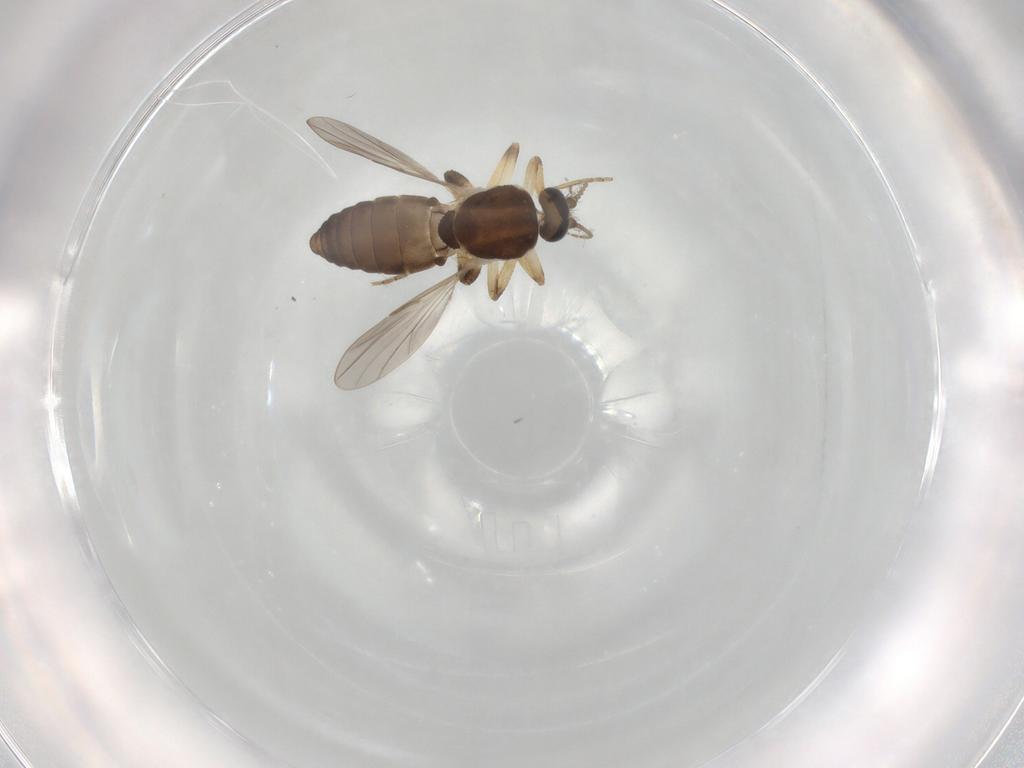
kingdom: Animalia
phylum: Arthropoda
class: Insecta
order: Diptera
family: Ceratopogonidae
